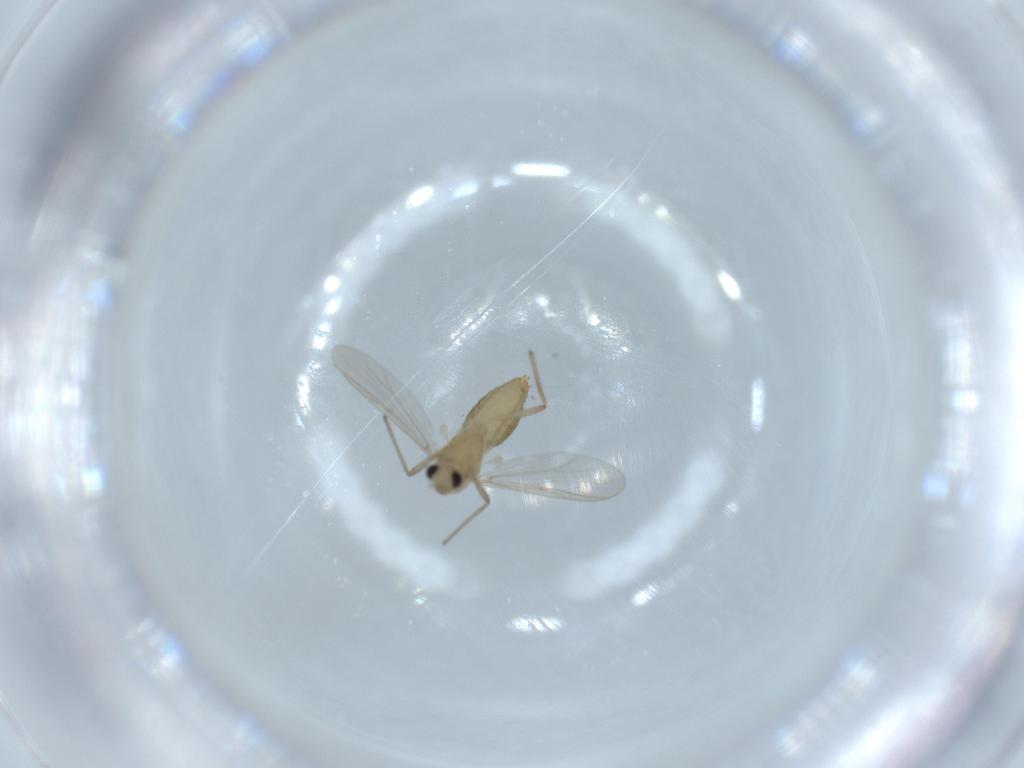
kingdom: Animalia
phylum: Arthropoda
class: Insecta
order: Diptera
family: Chironomidae
